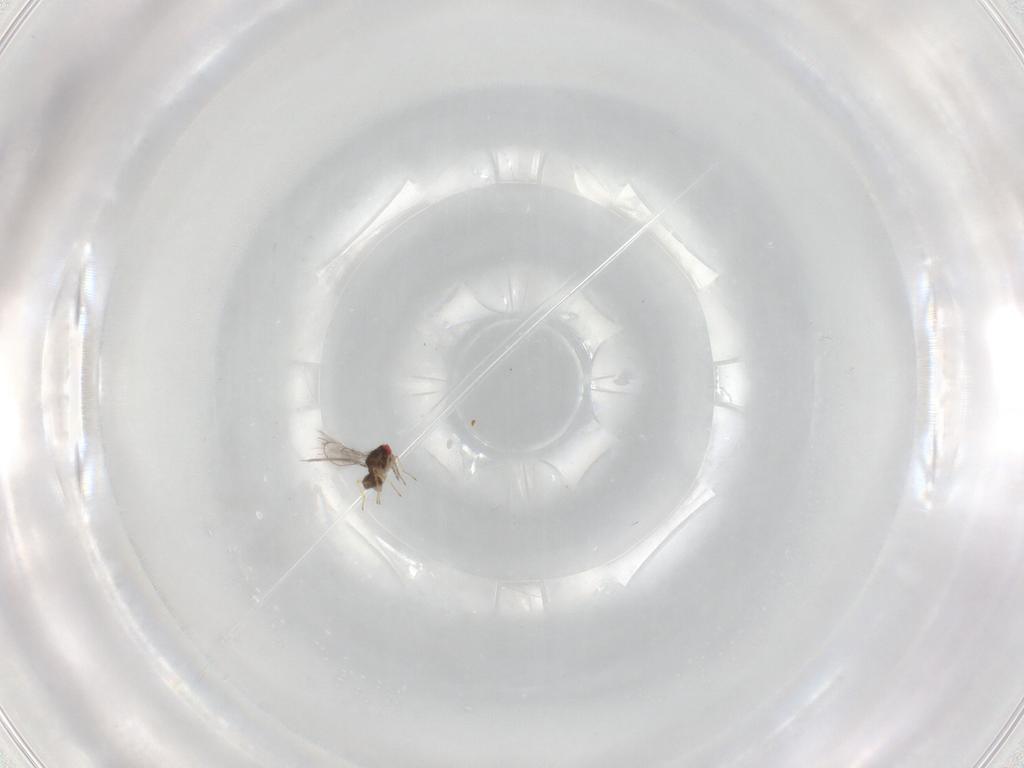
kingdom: Animalia
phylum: Arthropoda
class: Insecta
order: Hymenoptera
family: Eulophidae
